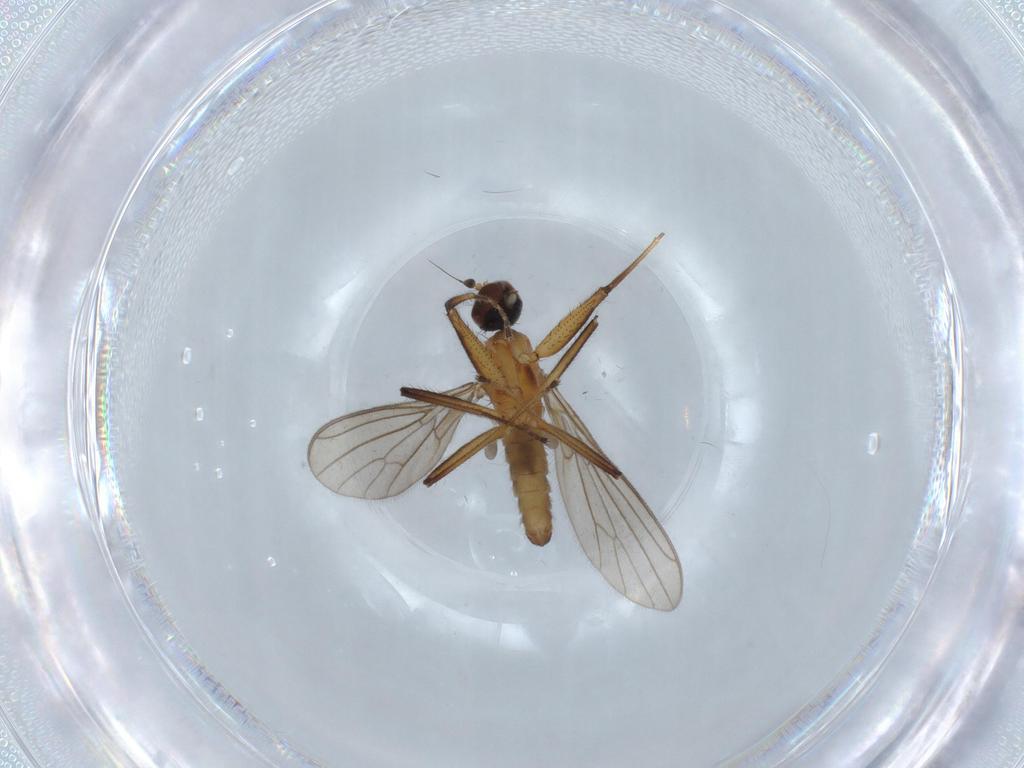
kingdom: Animalia
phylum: Arthropoda
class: Insecta
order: Diptera
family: Empididae
